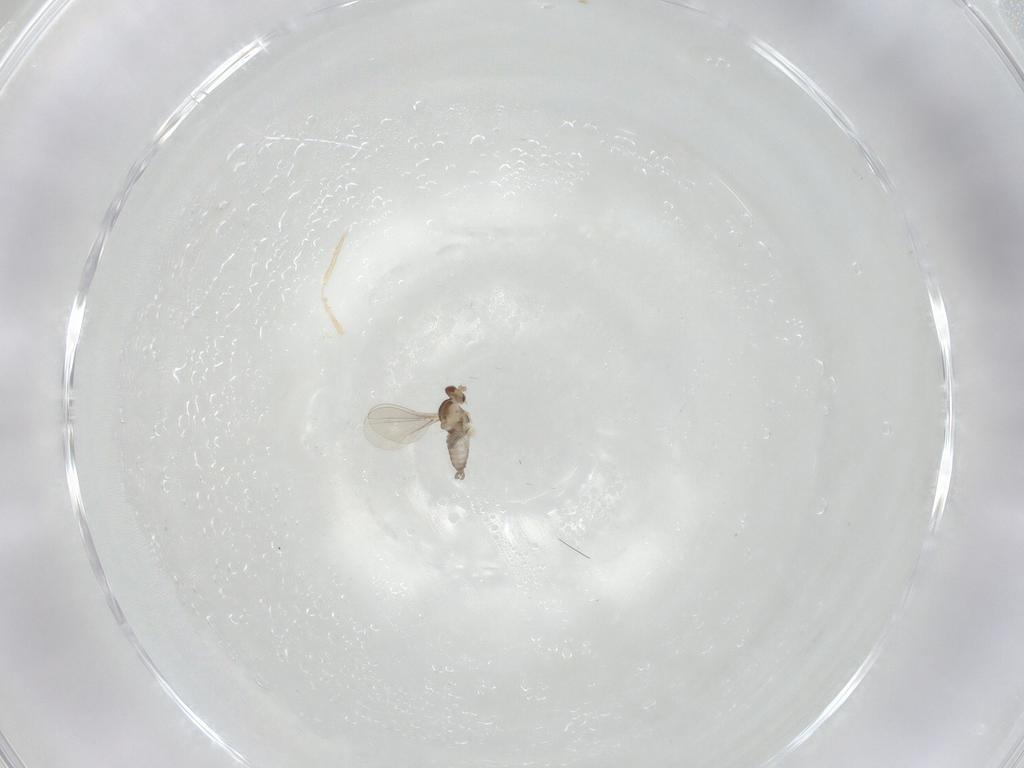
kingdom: Animalia
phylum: Arthropoda
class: Insecta
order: Diptera
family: Cecidomyiidae
